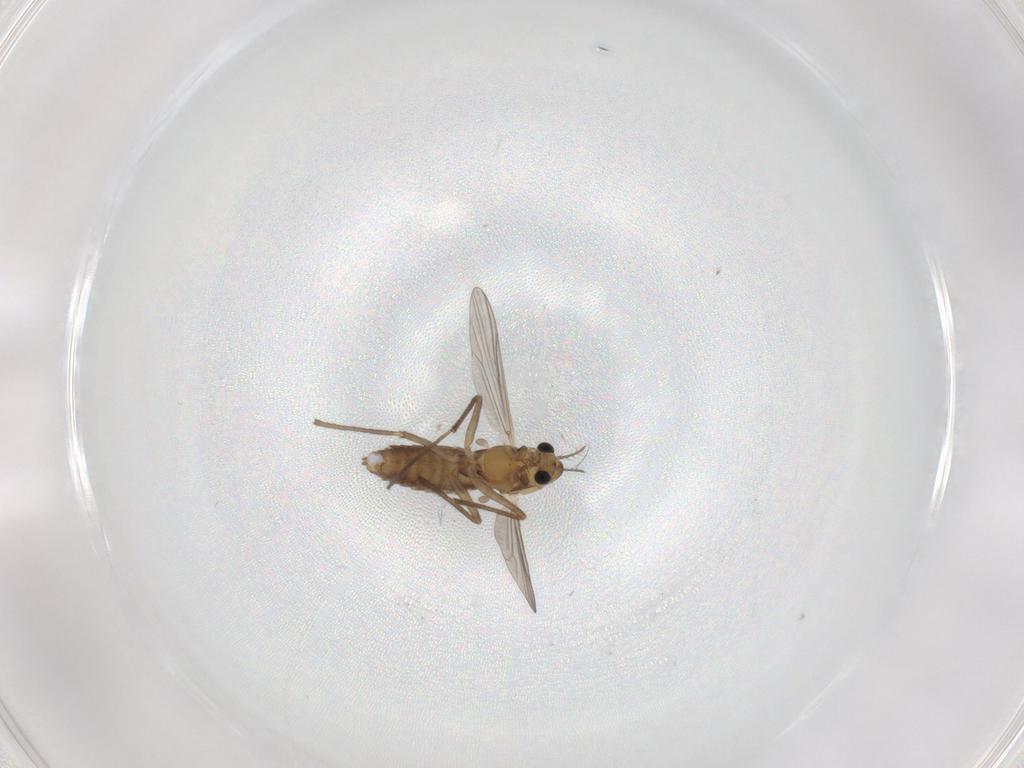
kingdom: Animalia
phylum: Arthropoda
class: Insecta
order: Diptera
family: Chironomidae
